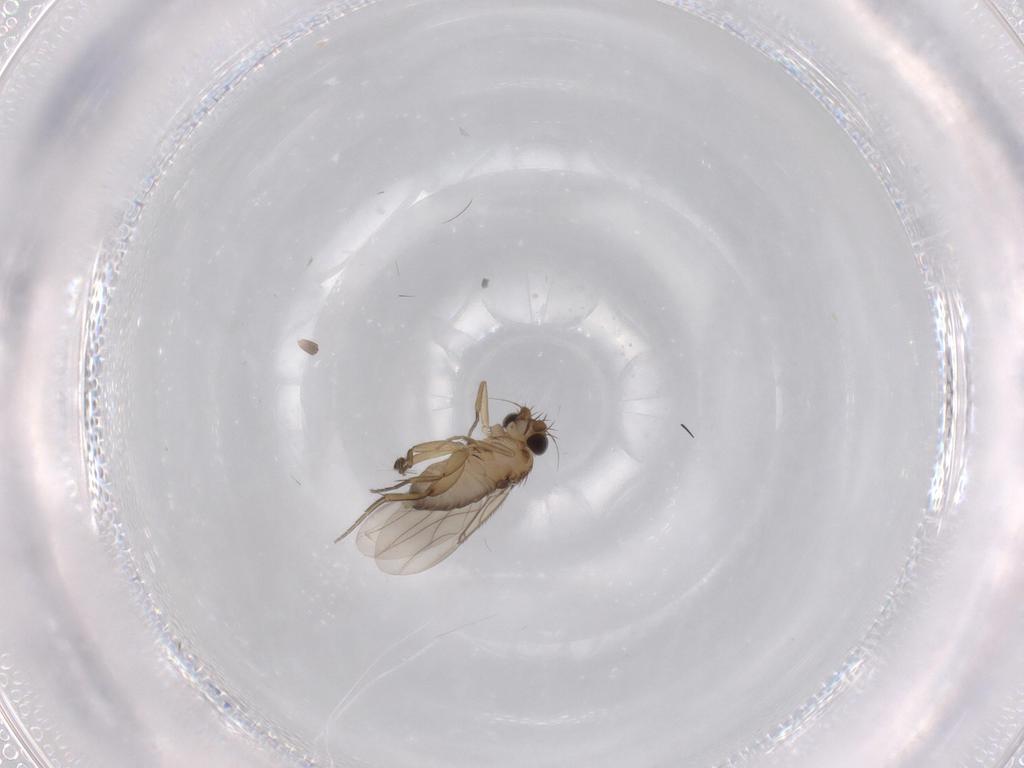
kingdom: Animalia
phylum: Arthropoda
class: Insecta
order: Diptera
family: Phoridae
